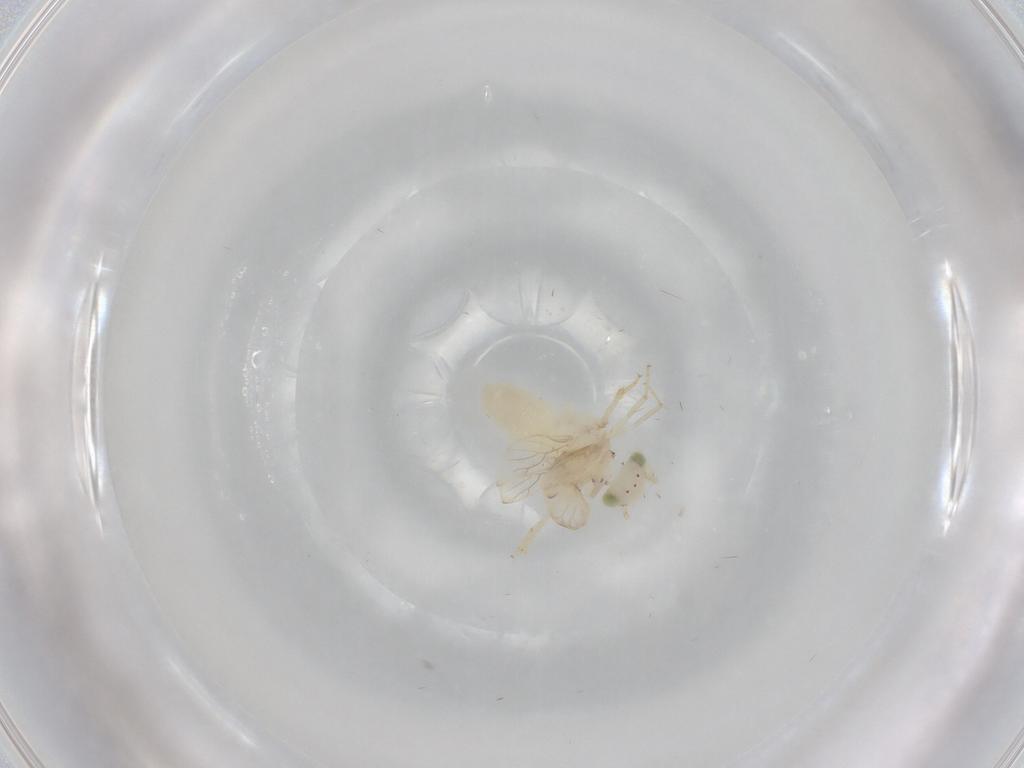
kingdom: Animalia
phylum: Arthropoda
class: Insecta
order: Psocodea
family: Lepidopsocidae
